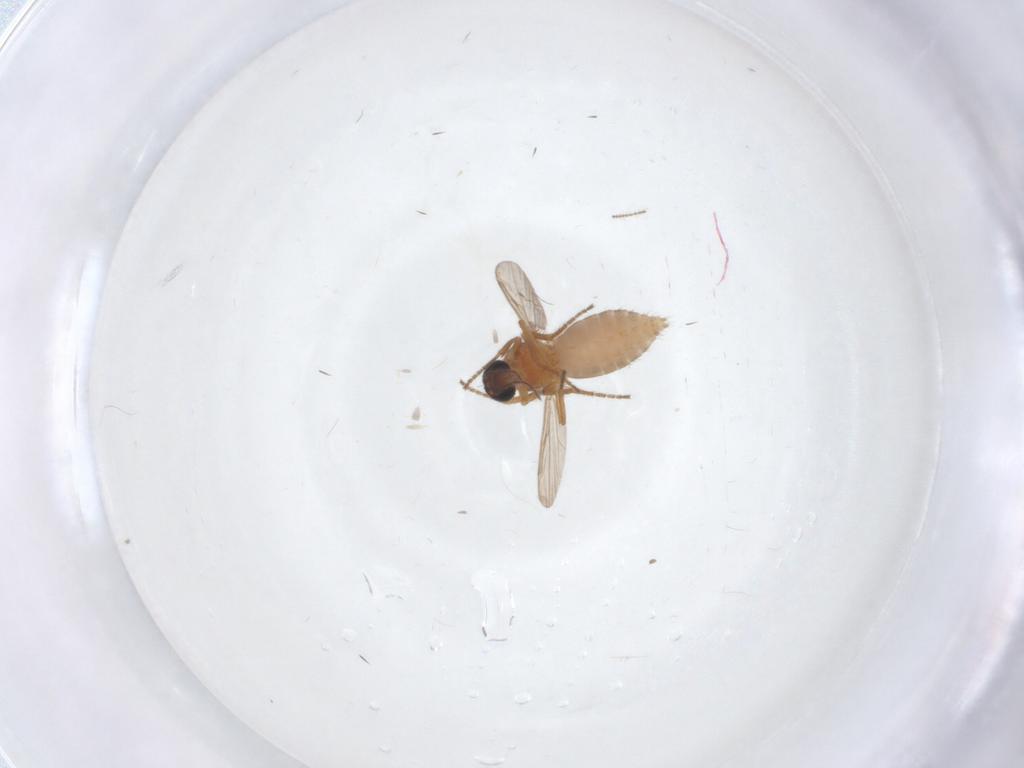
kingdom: Animalia
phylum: Arthropoda
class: Insecta
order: Diptera
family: Ceratopogonidae
